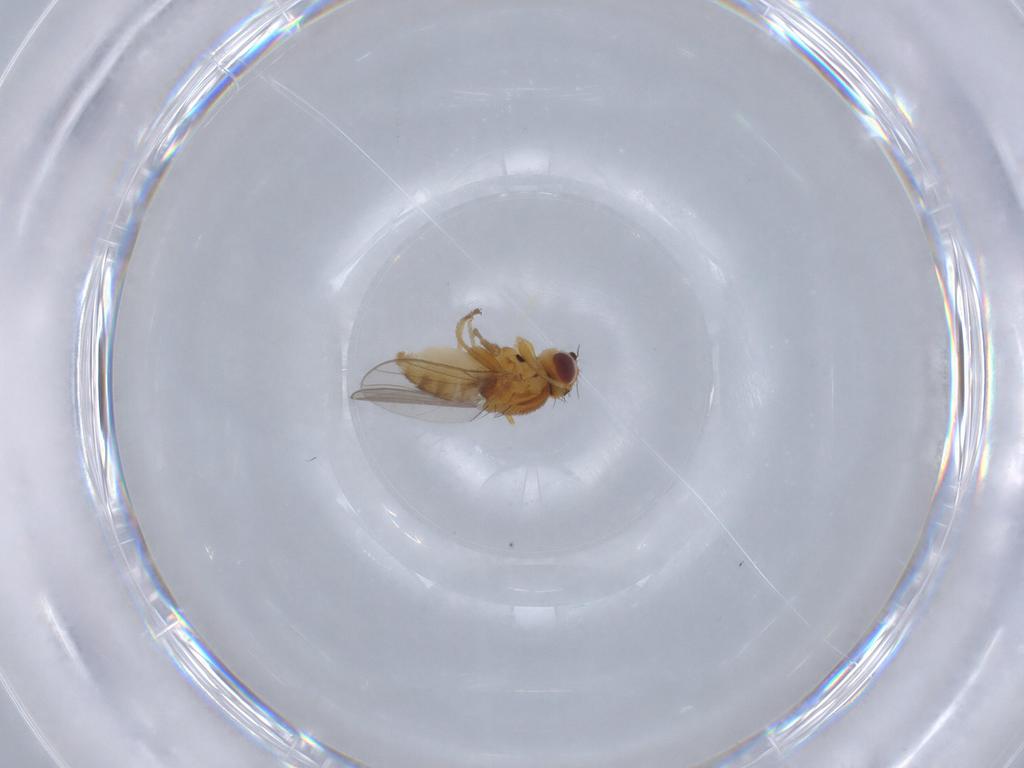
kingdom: Animalia
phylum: Arthropoda
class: Insecta
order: Diptera
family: Chloropidae
